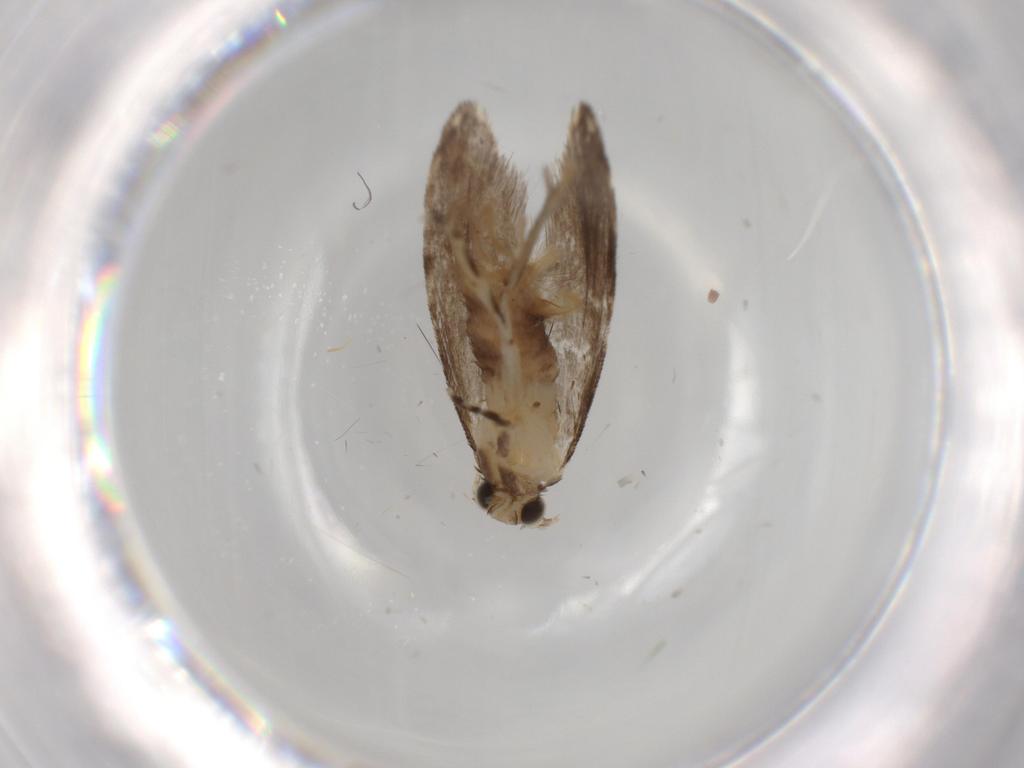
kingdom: Animalia
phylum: Arthropoda
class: Insecta
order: Lepidoptera
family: Tineidae
